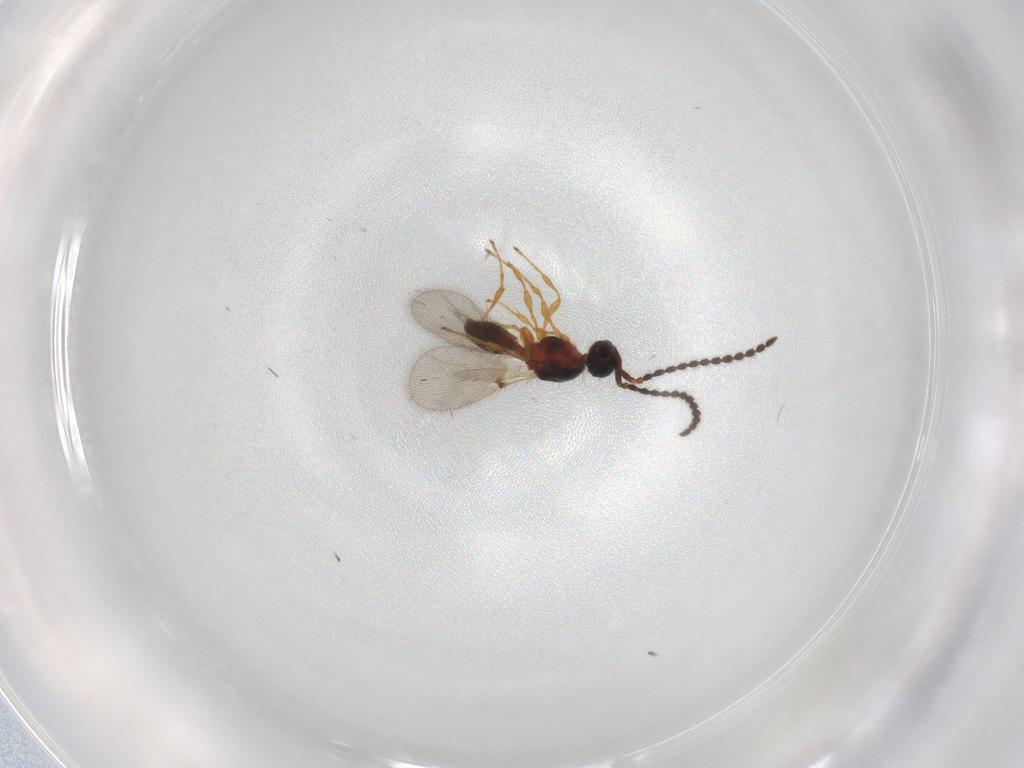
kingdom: Animalia
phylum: Arthropoda
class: Insecta
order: Hymenoptera
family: Diapriidae
